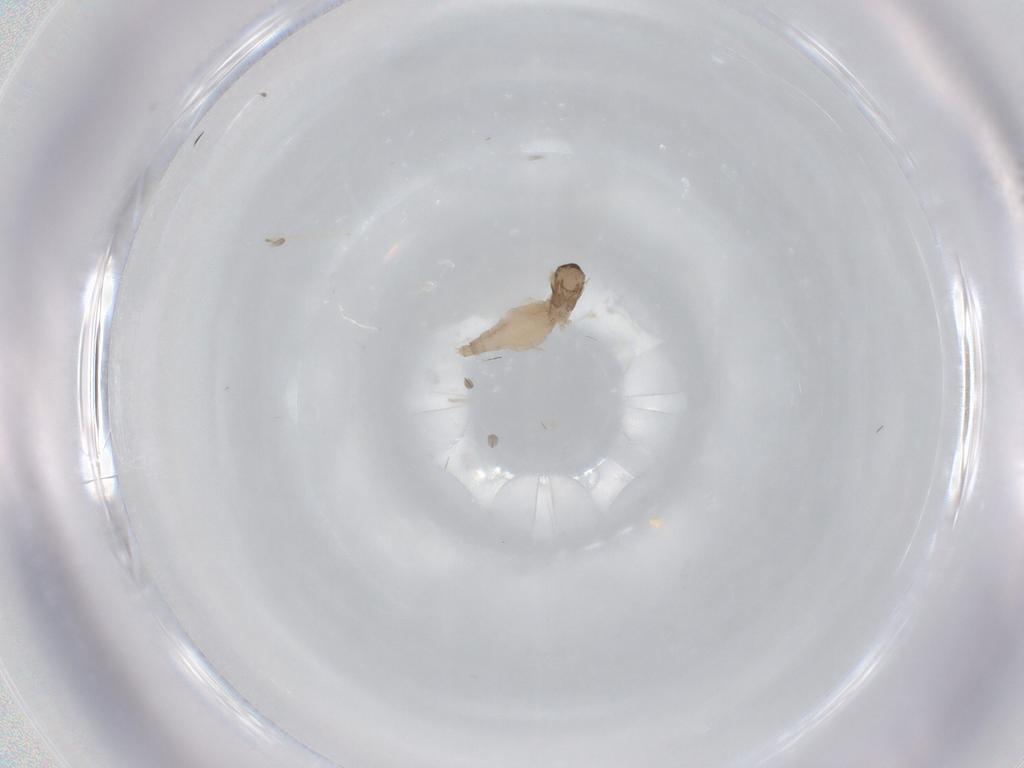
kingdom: Animalia
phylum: Arthropoda
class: Insecta
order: Diptera
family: Cecidomyiidae
